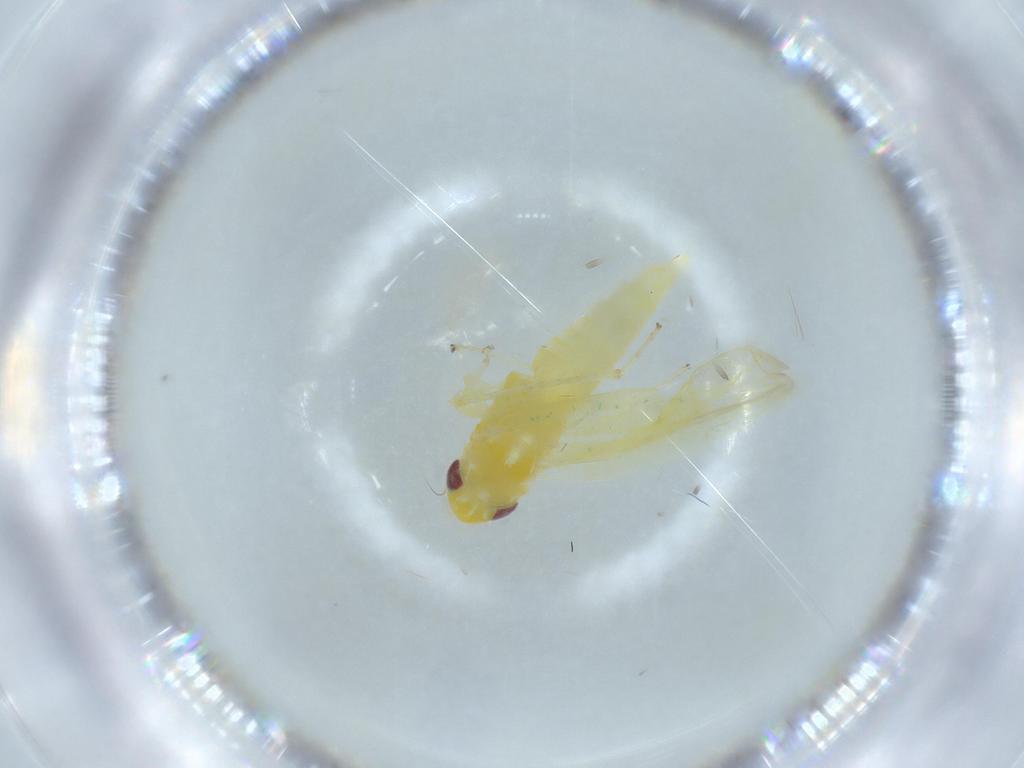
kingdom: Animalia
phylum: Arthropoda
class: Insecta
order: Hemiptera
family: Cicadellidae
